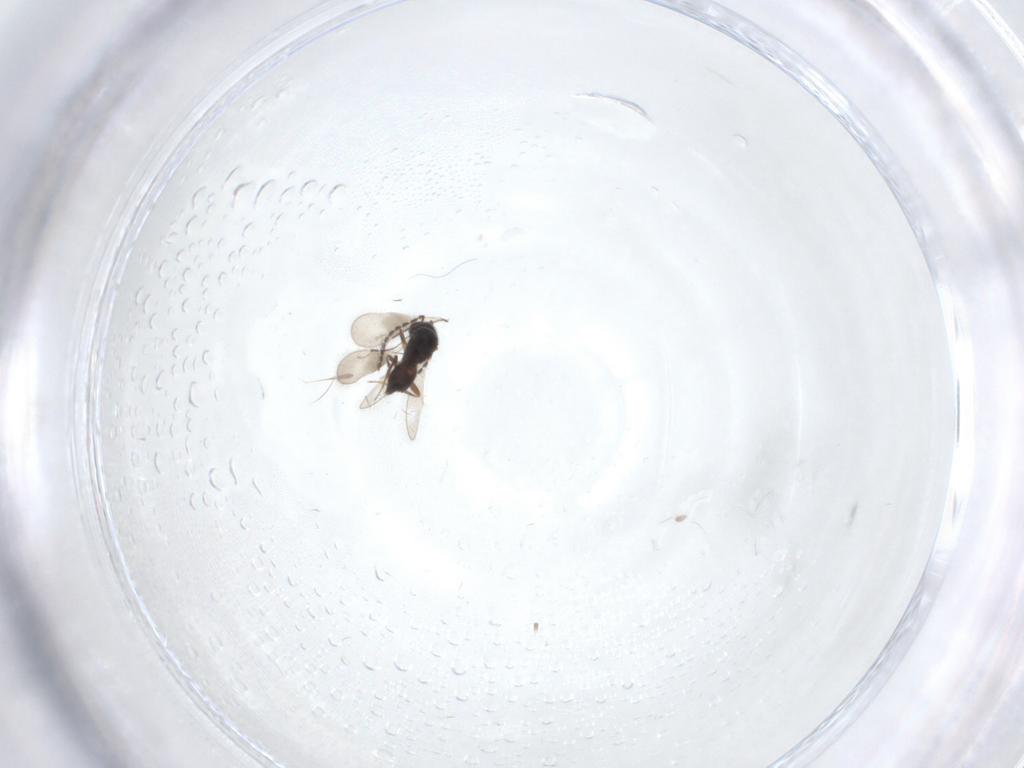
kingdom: Animalia
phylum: Arthropoda
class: Insecta
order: Hymenoptera
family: Ceraphronidae
